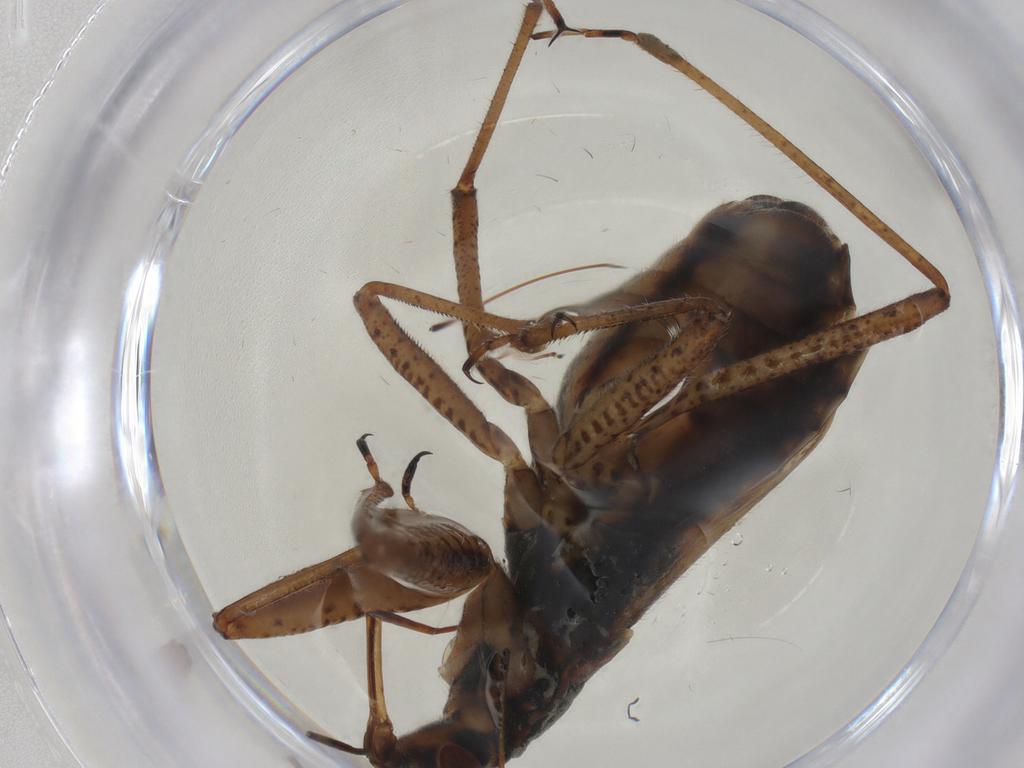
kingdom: Animalia
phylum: Arthropoda
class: Insecta
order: Hemiptera
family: Nabidae
